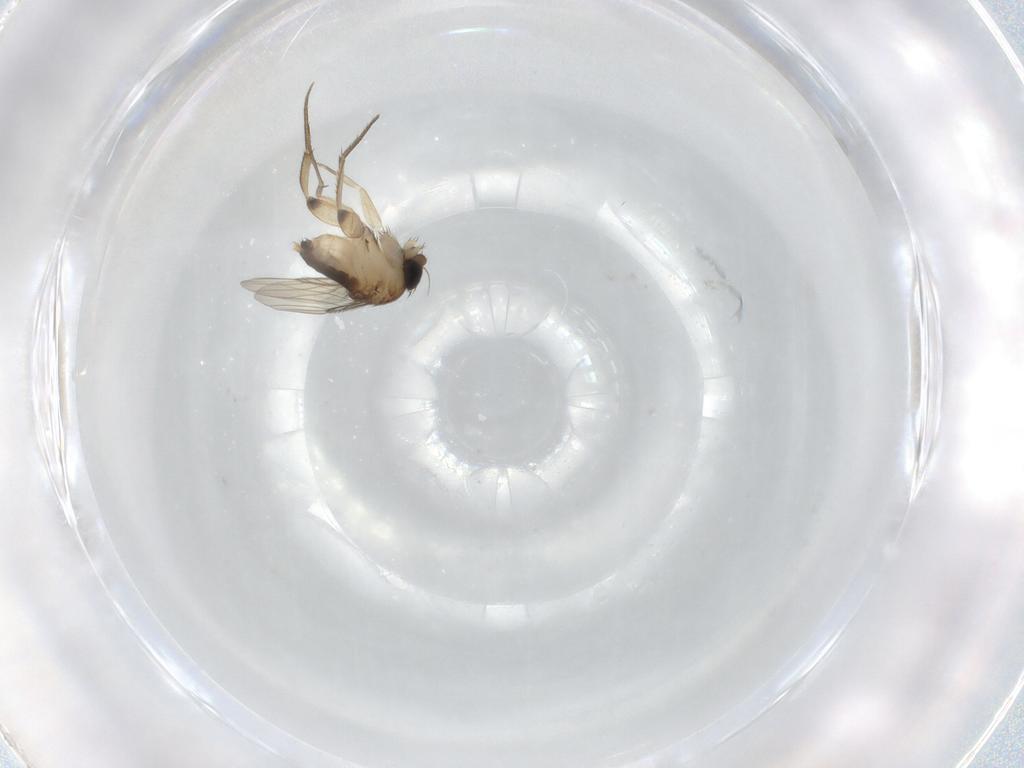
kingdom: Animalia
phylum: Arthropoda
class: Insecta
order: Diptera
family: Phoridae
